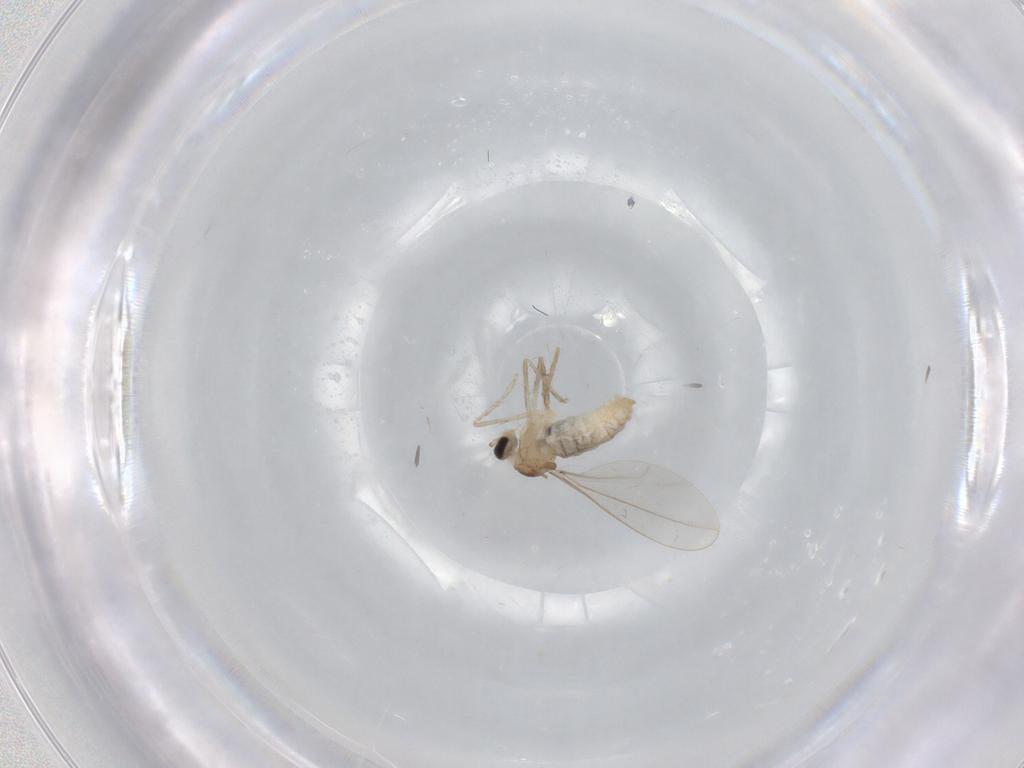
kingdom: Animalia
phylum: Arthropoda
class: Insecta
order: Diptera
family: Cecidomyiidae
